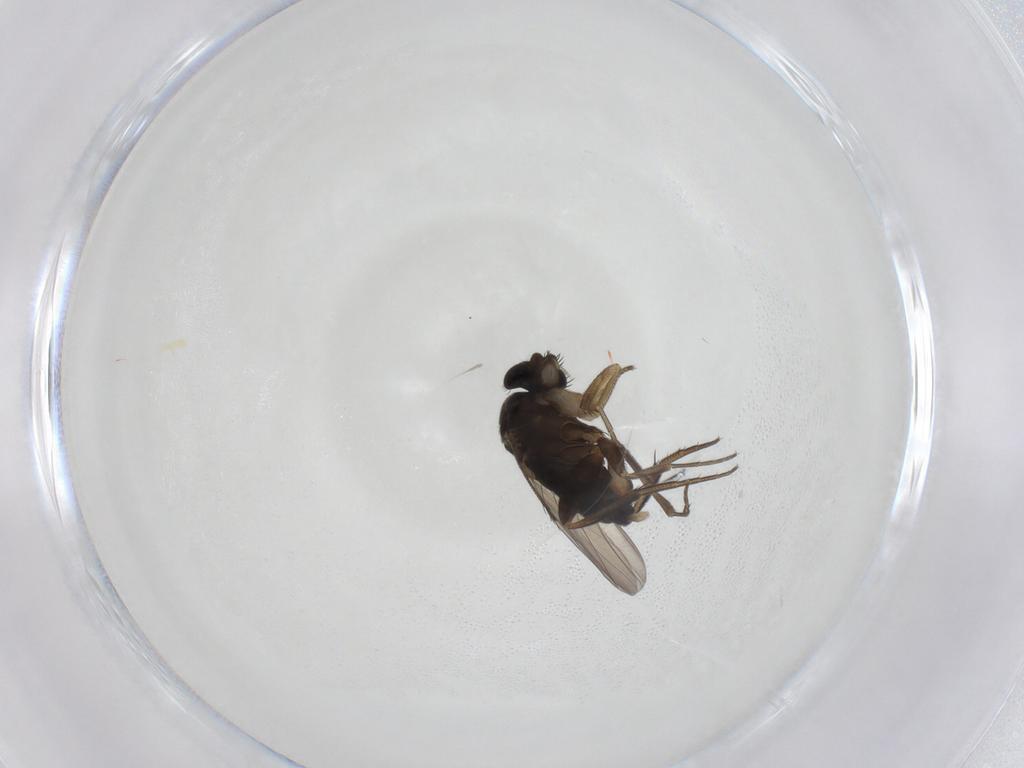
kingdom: Animalia
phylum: Arthropoda
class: Insecta
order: Diptera
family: Phoridae
